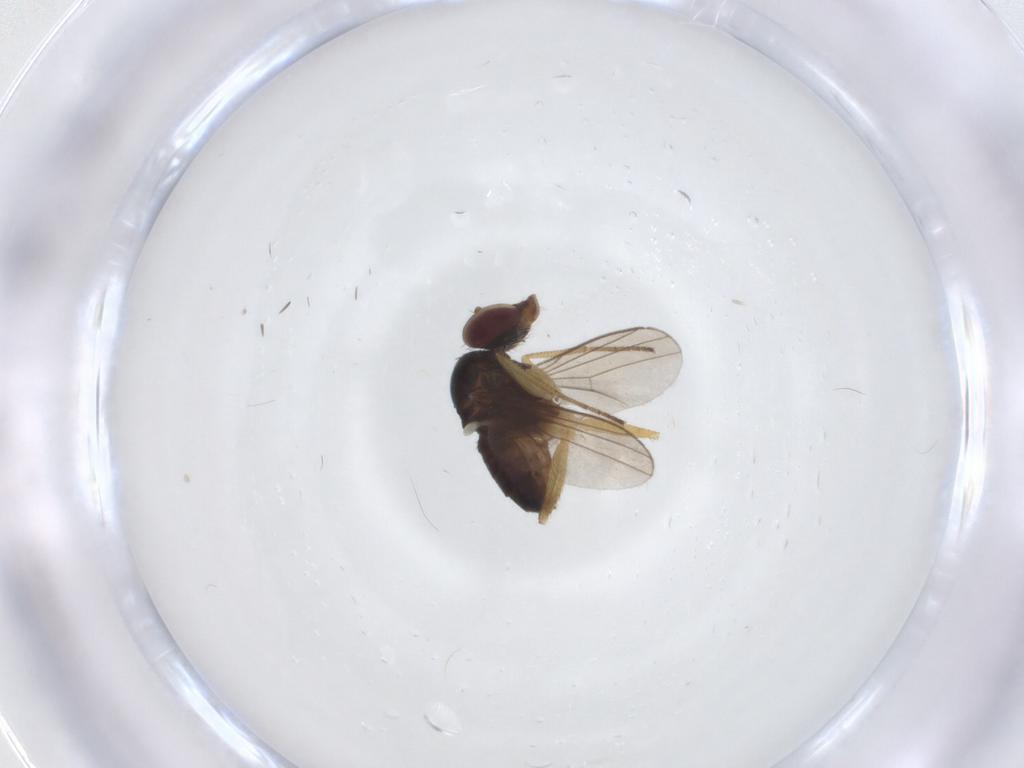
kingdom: Animalia
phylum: Arthropoda
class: Insecta
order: Diptera
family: Dolichopodidae
